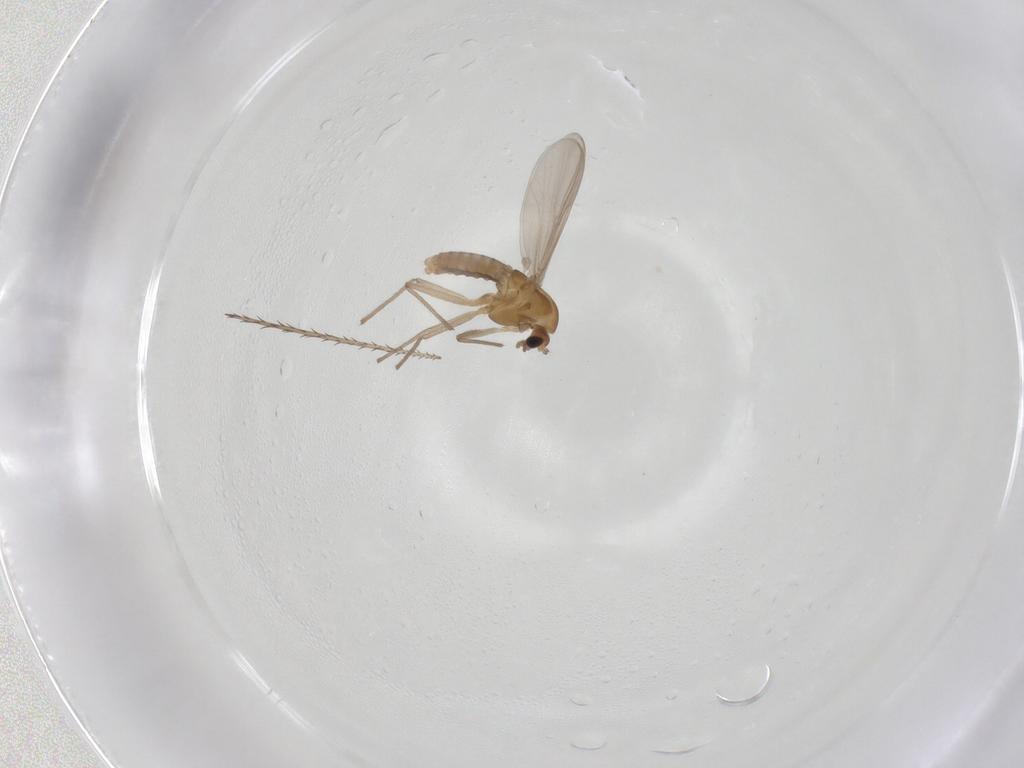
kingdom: Animalia
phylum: Arthropoda
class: Insecta
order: Diptera
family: Chironomidae
